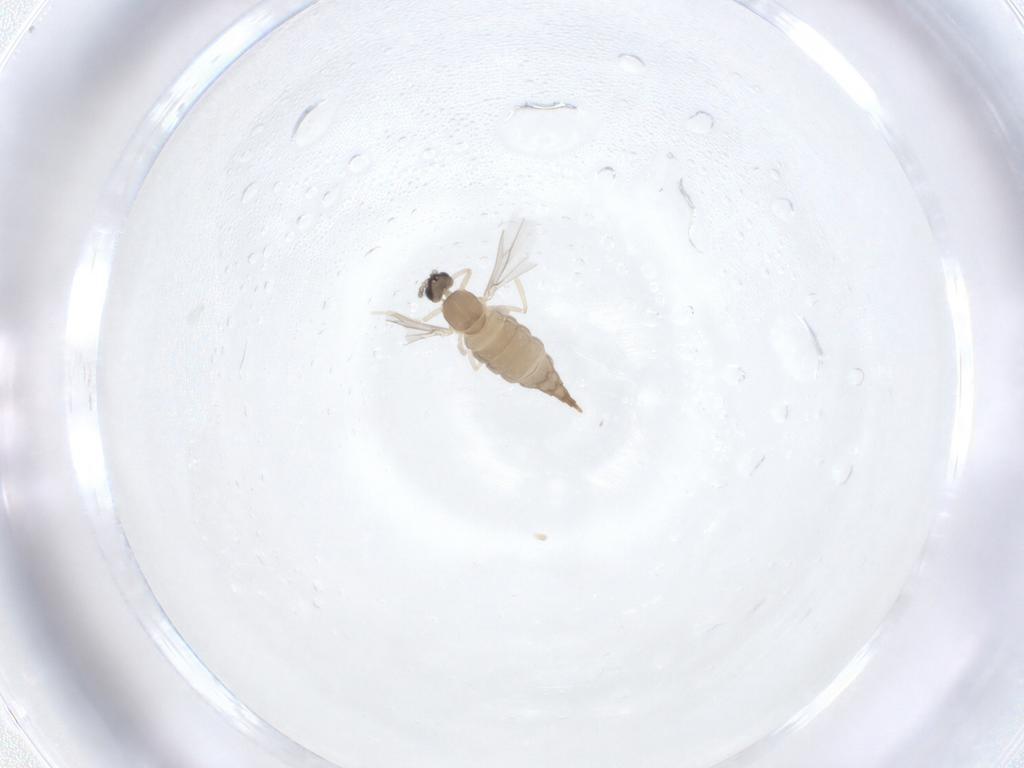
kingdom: Animalia
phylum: Arthropoda
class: Insecta
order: Diptera
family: Cecidomyiidae
